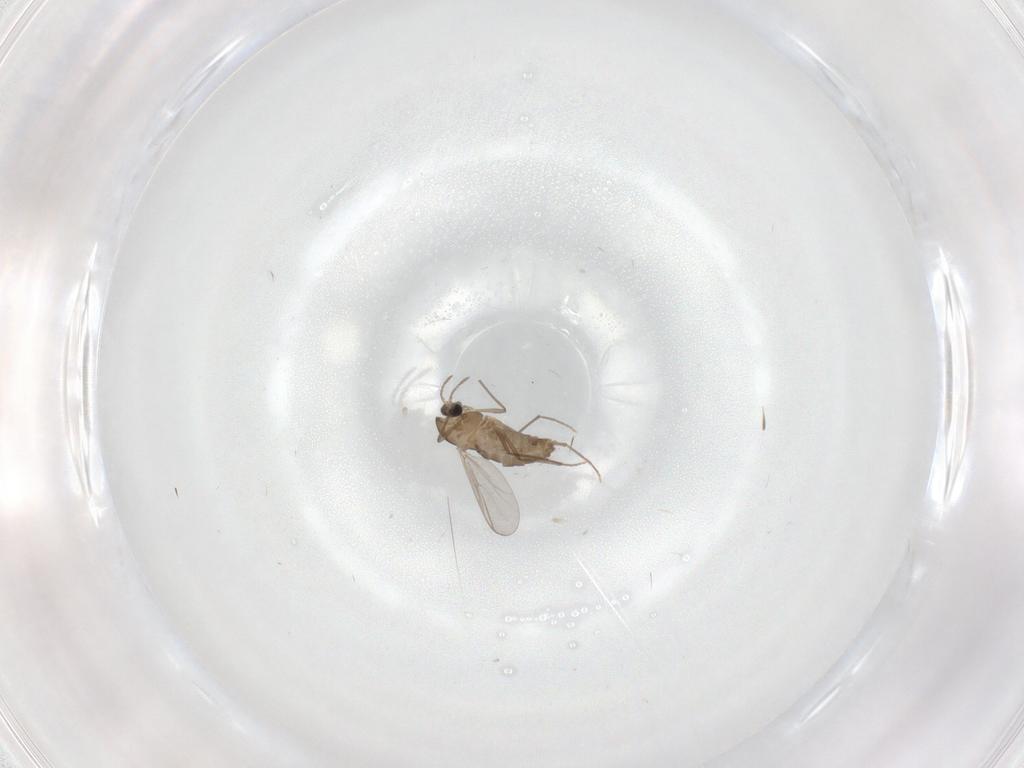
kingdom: Animalia
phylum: Arthropoda
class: Insecta
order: Diptera
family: Chironomidae
